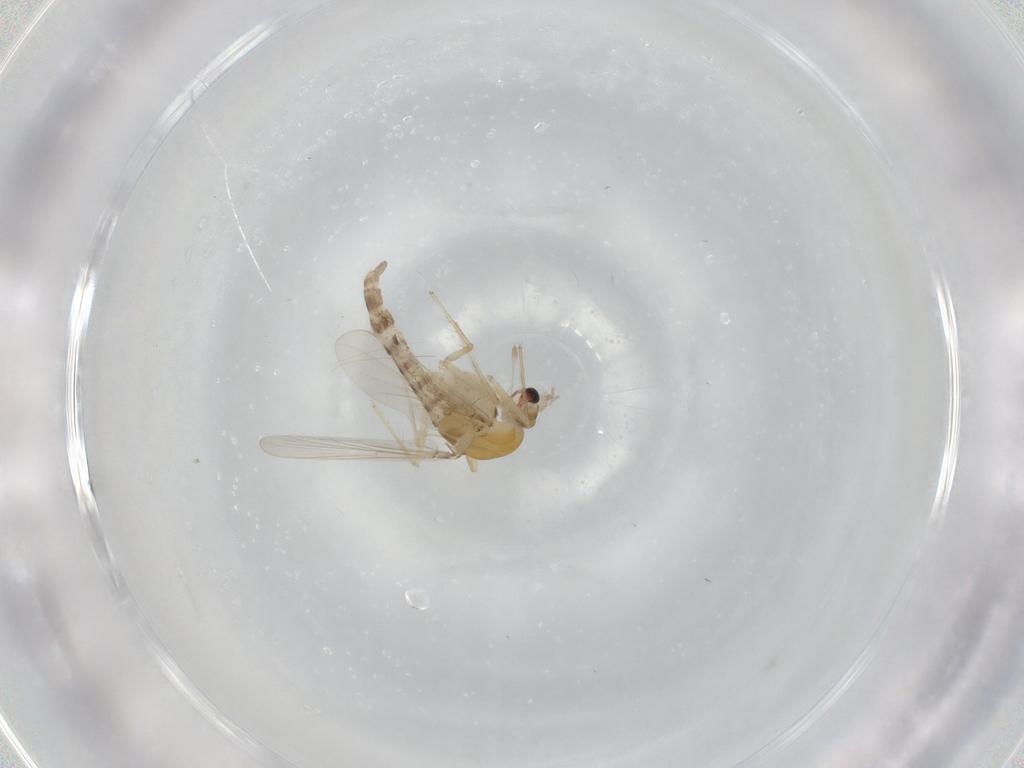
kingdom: Animalia
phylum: Arthropoda
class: Insecta
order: Diptera
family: Chironomidae
